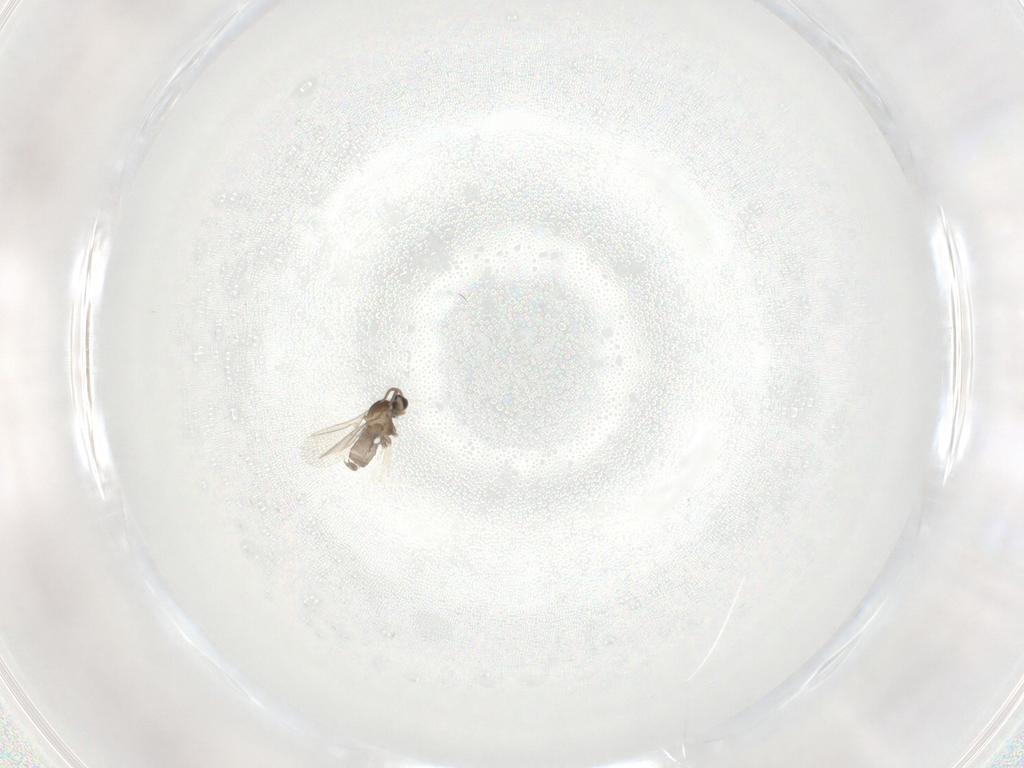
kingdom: Animalia
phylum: Arthropoda
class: Insecta
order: Diptera
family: Cecidomyiidae
